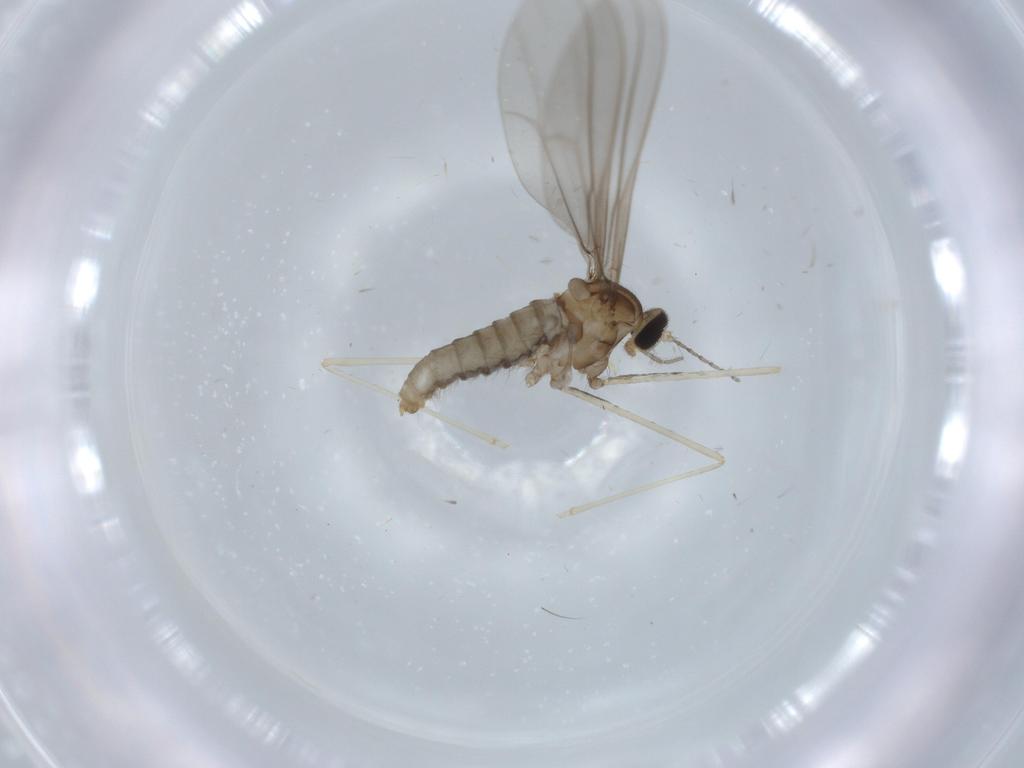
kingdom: Animalia
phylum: Arthropoda
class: Insecta
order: Diptera
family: Cecidomyiidae
